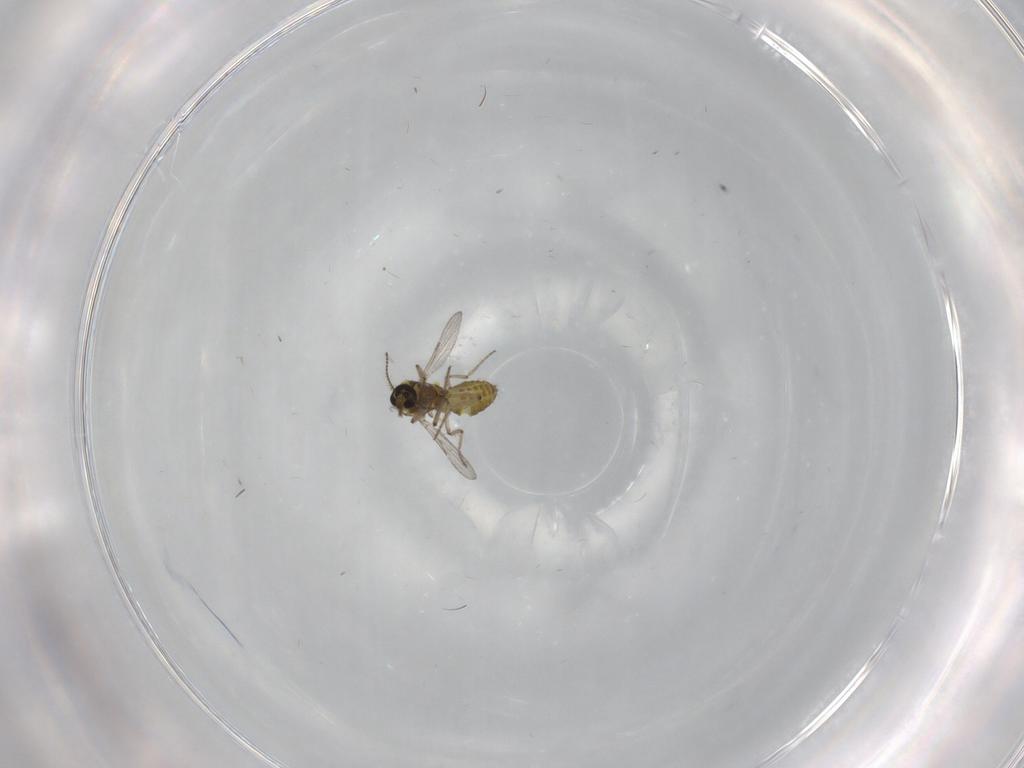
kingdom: Animalia
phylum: Arthropoda
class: Insecta
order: Diptera
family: Ceratopogonidae
